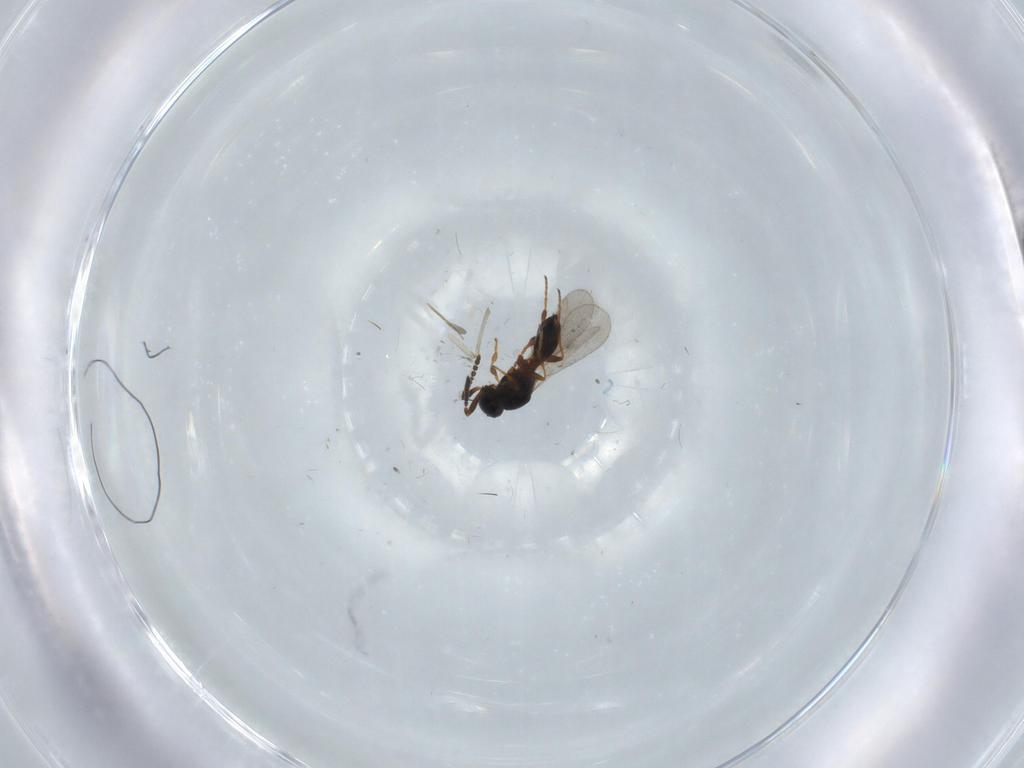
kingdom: Animalia
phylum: Arthropoda
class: Insecta
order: Hymenoptera
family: Platygastridae
